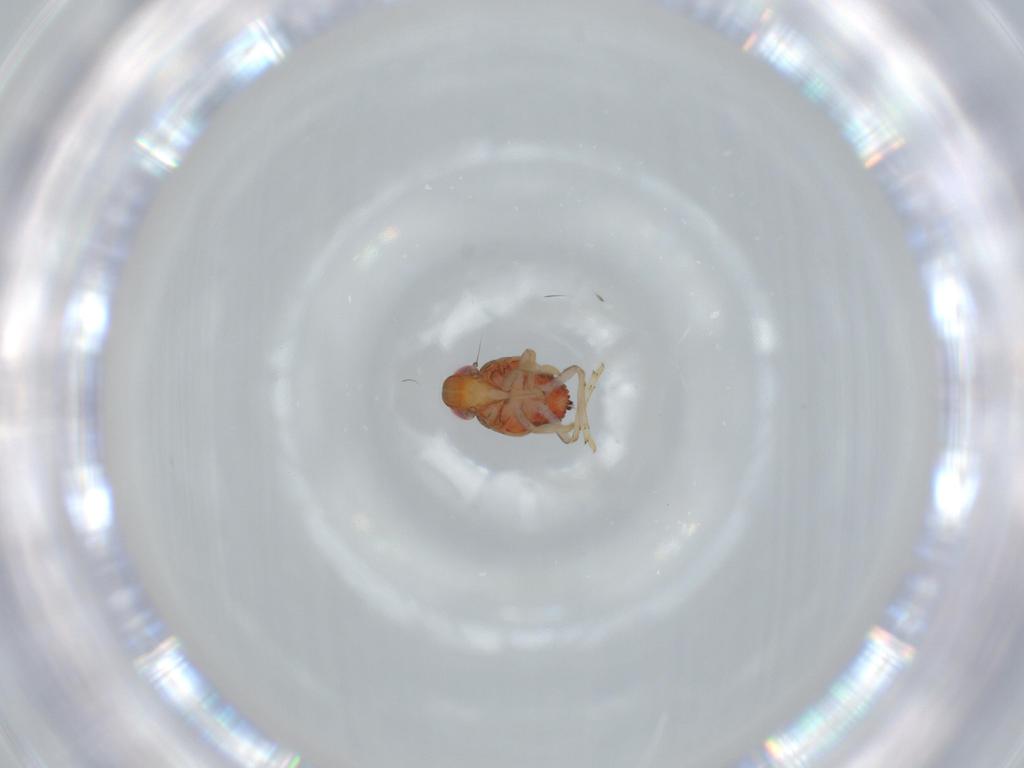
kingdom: Animalia
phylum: Arthropoda
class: Insecta
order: Hemiptera
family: Issidae
